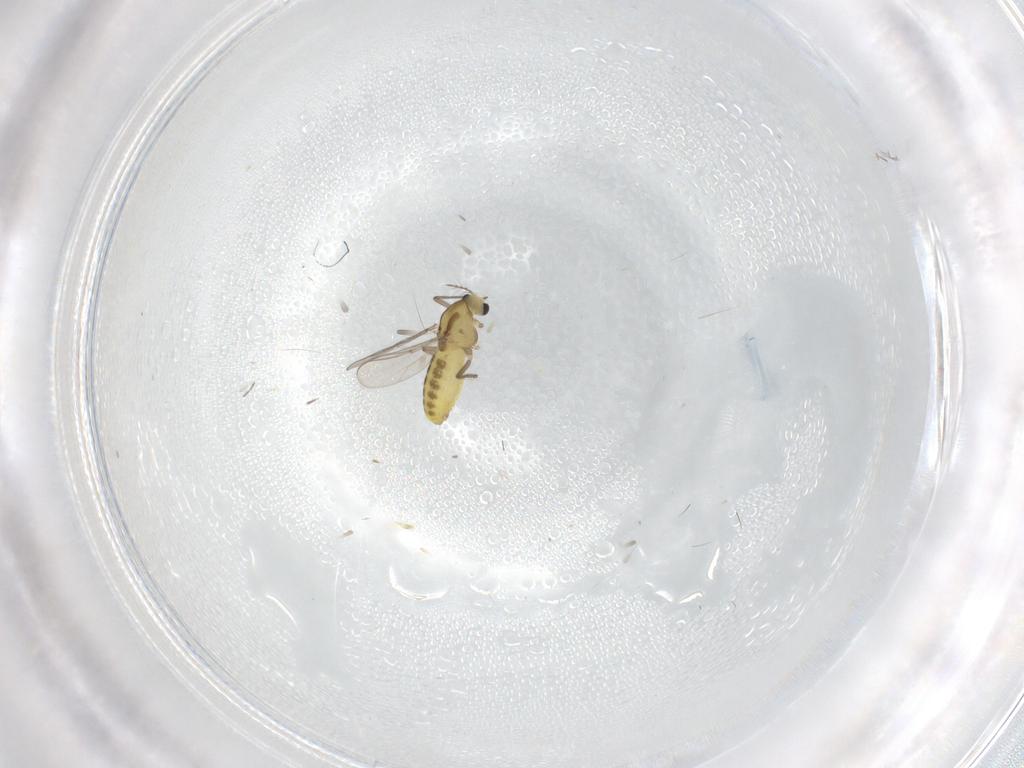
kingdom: Animalia
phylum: Arthropoda
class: Insecta
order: Diptera
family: Chironomidae
